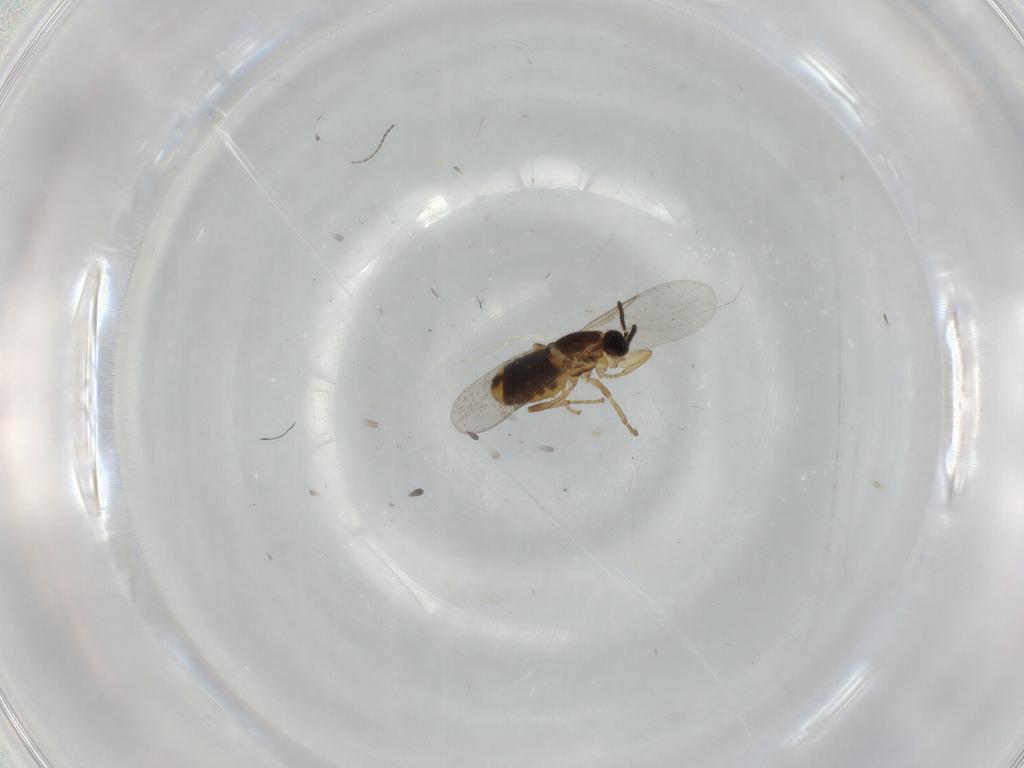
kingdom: Animalia
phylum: Arthropoda
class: Insecta
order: Diptera
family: Scatopsidae
